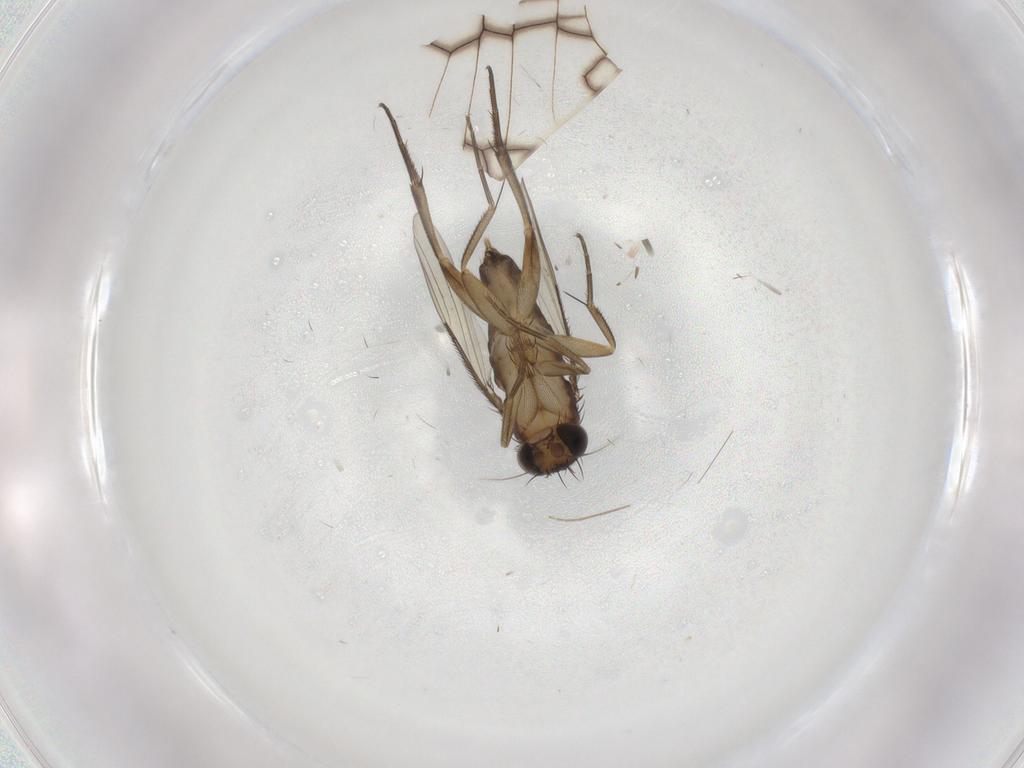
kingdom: Animalia
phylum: Arthropoda
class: Insecta
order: Diptera
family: Phoridae
